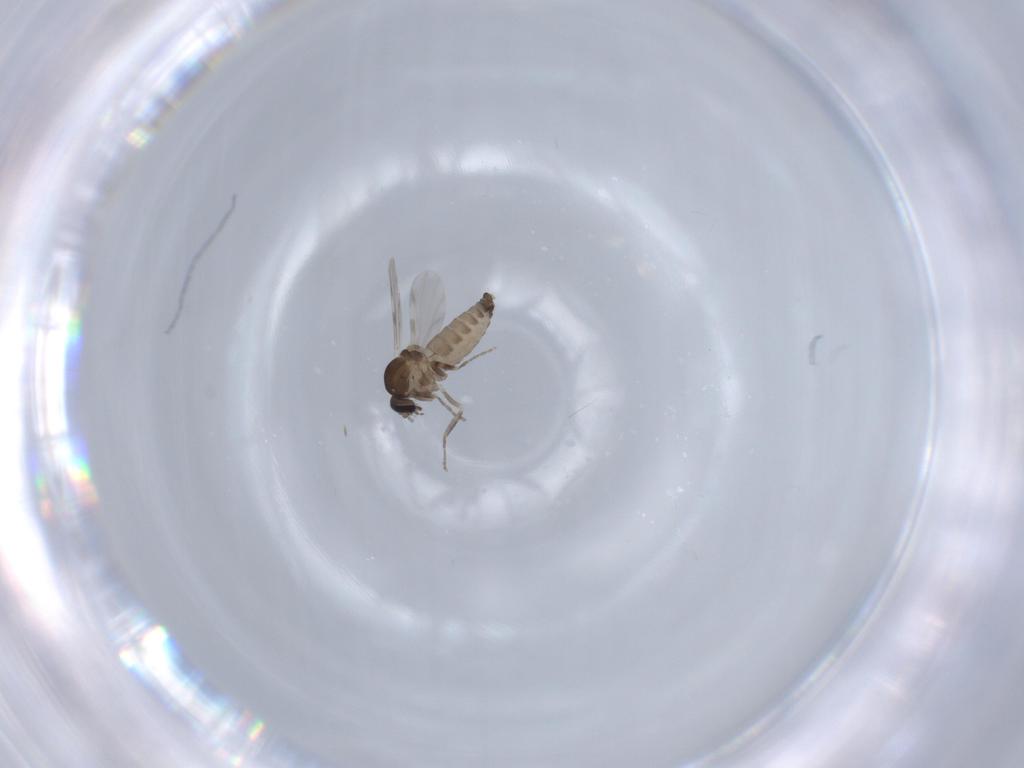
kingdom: Animalia
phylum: Arthropoda
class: Insecta
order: Diptera
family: Ceratopogonidae
